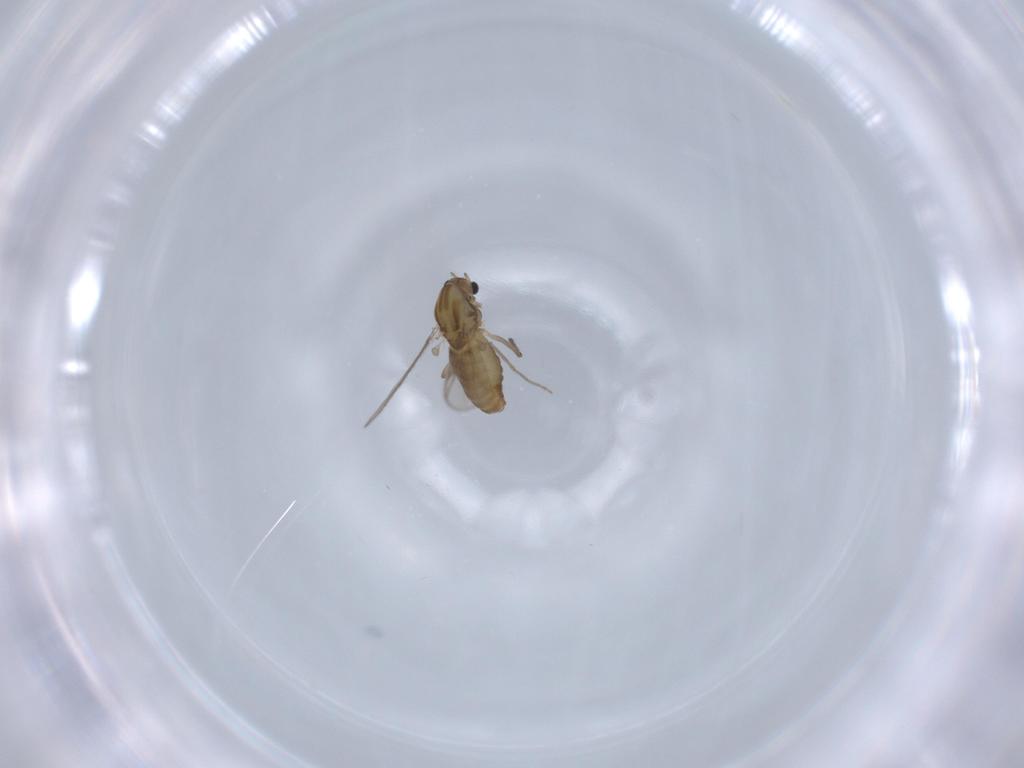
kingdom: Animalia
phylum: Arthropoda
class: Insecta
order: Diptera
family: Chironomidae
